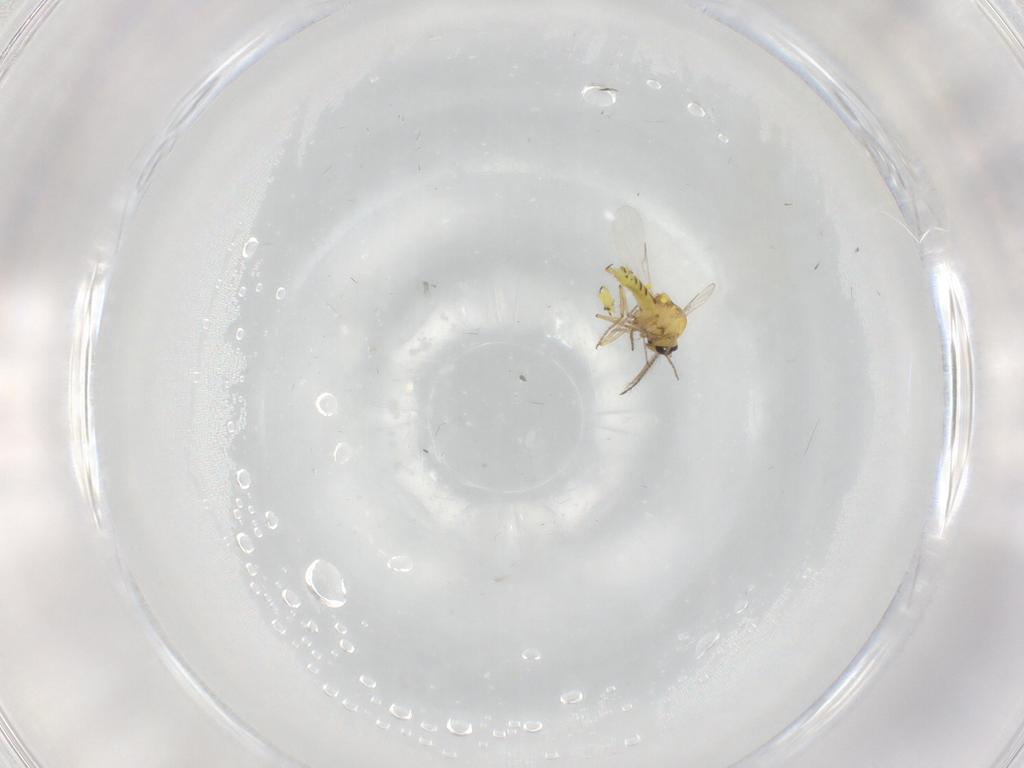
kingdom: Animalia
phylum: Arthropoda
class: Insecta
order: Diptera
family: Ceratopogonidae
